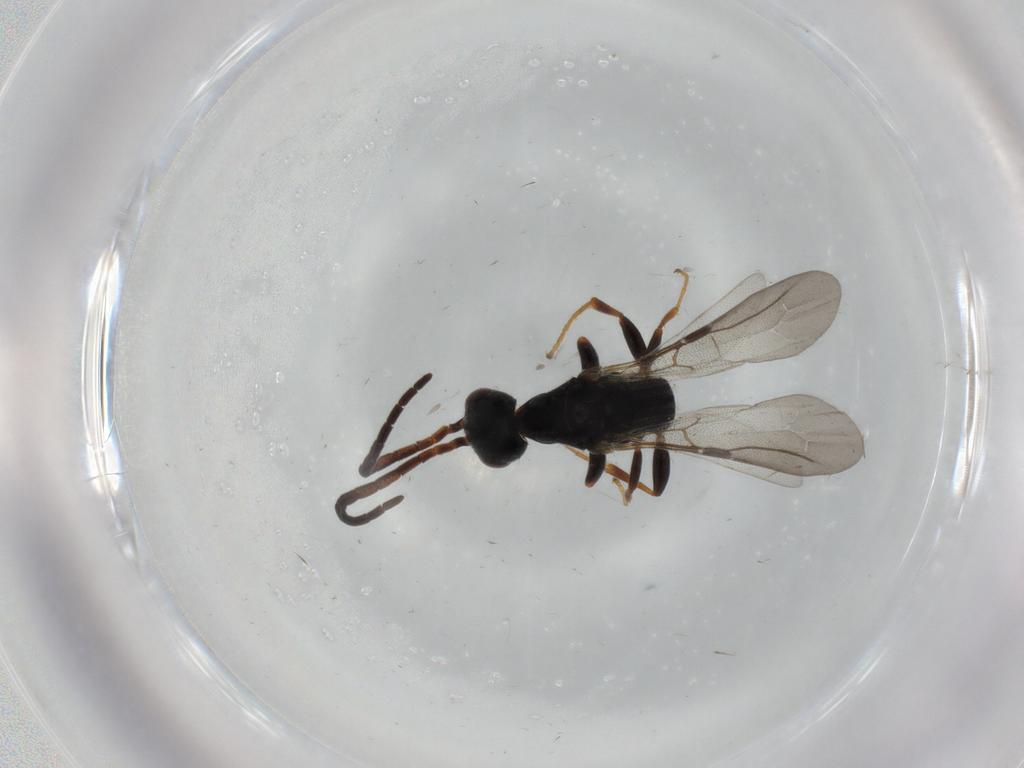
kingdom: Animalia
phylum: Arthropoda
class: Insecta
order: Hymenoptera
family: Bethylidae
